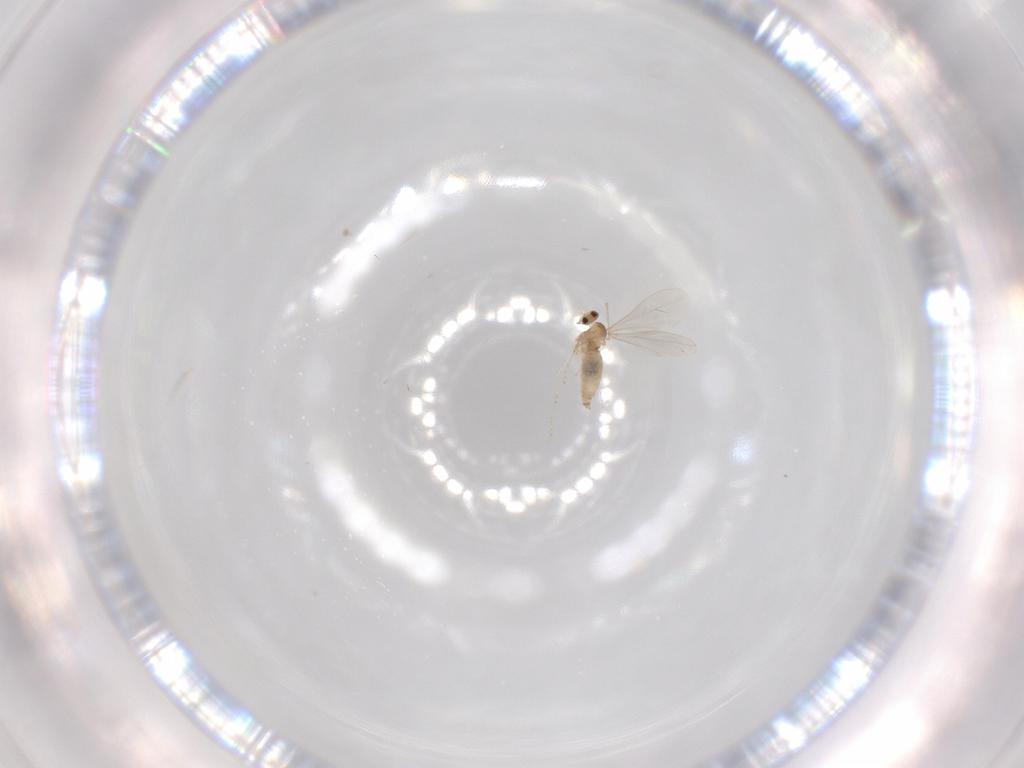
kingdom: Animalia
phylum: Arthropoda
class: Insecta
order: Diptera
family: Cecidomyiidae
